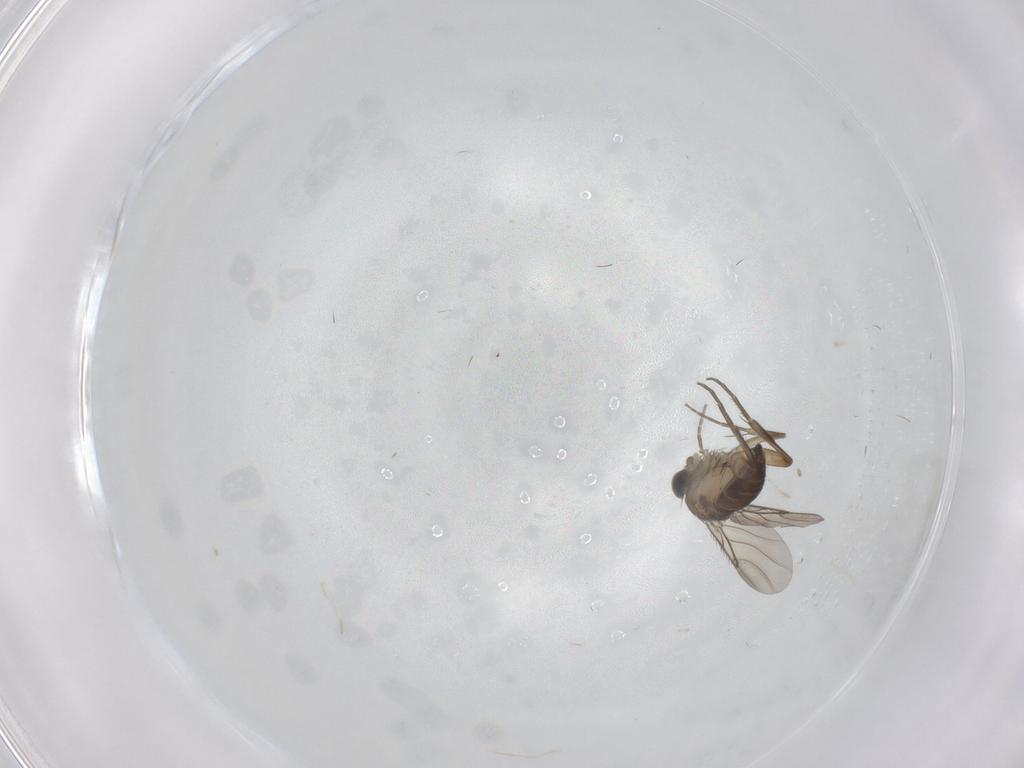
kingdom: Animalia
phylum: Arthropoda
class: Insecta
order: Diptera
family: Phoridae
